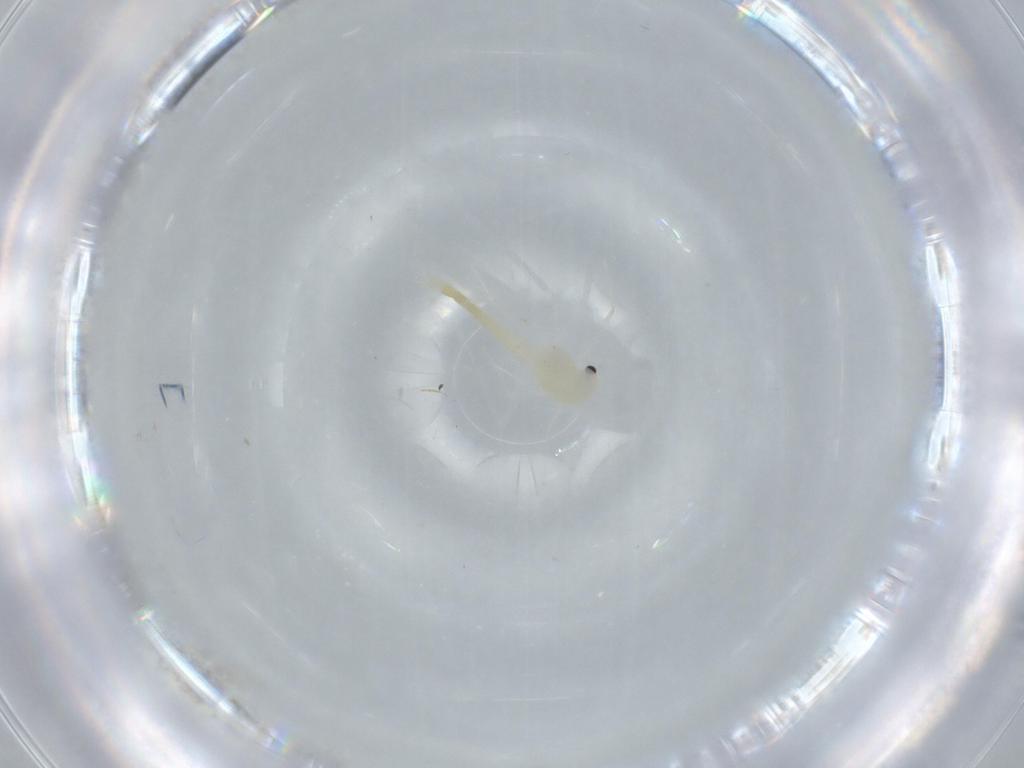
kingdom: Animalia
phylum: Arthropoda
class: Insecta
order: Diptera
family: Chironomidae
